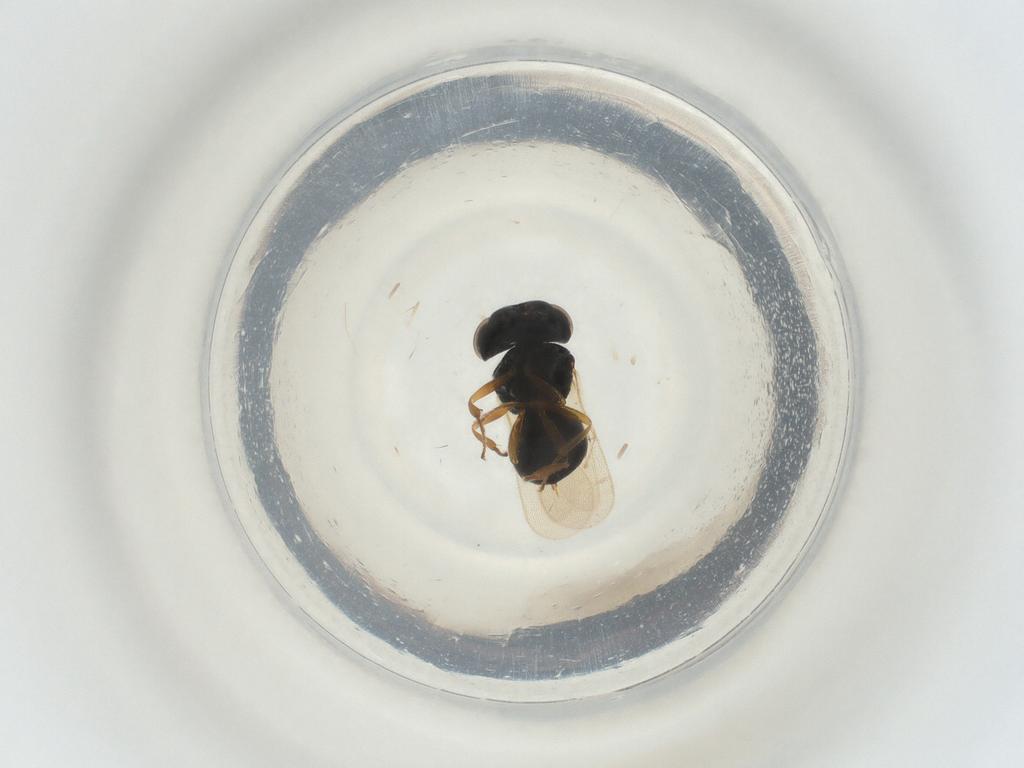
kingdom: Animalia
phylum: Arthropoda
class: Insecta
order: Hymenoptera
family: Scelionidae
